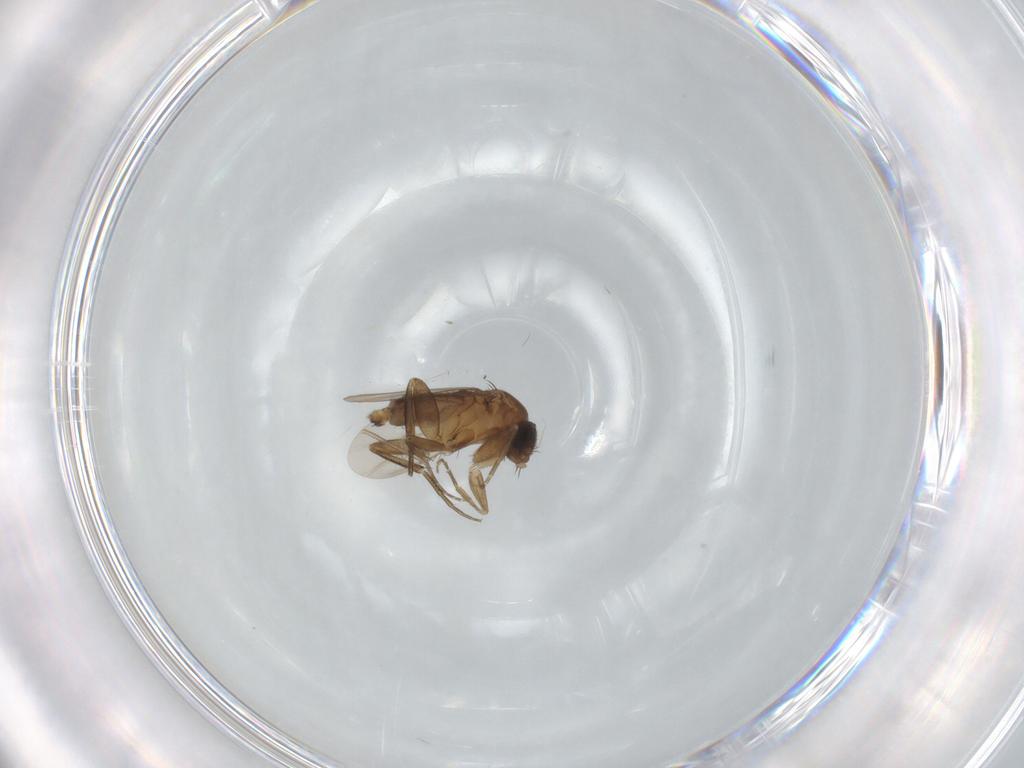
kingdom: Animalia
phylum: Arthropoda
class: Insecta
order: Diptera
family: Phoridae
